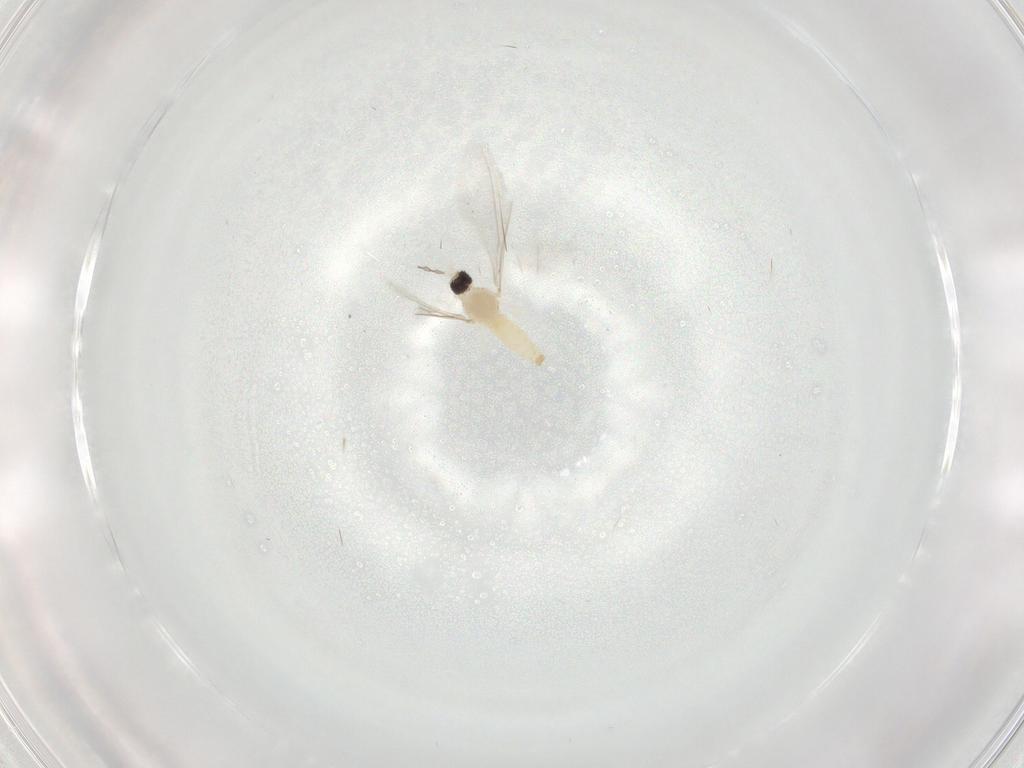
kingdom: Animalia
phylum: Arthropoda
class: Insecta
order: Diptera
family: Cecidomyiidae
